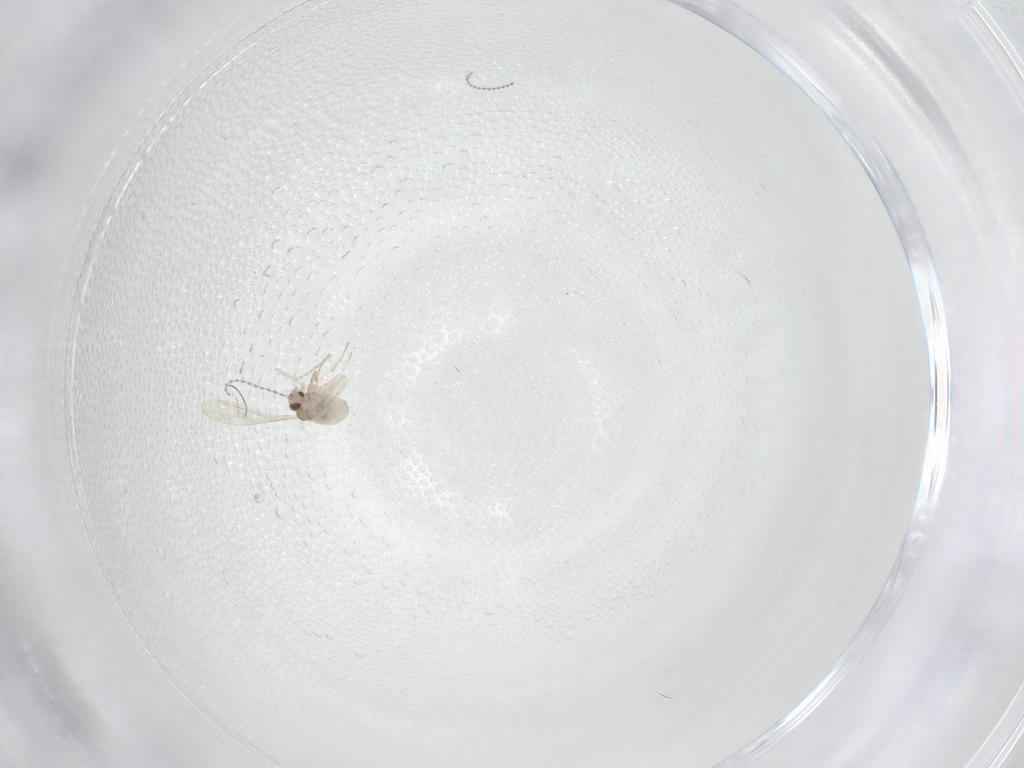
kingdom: Animalia
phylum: Arthropoda
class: Insecta
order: Diptera
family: Cecidomyiidae
